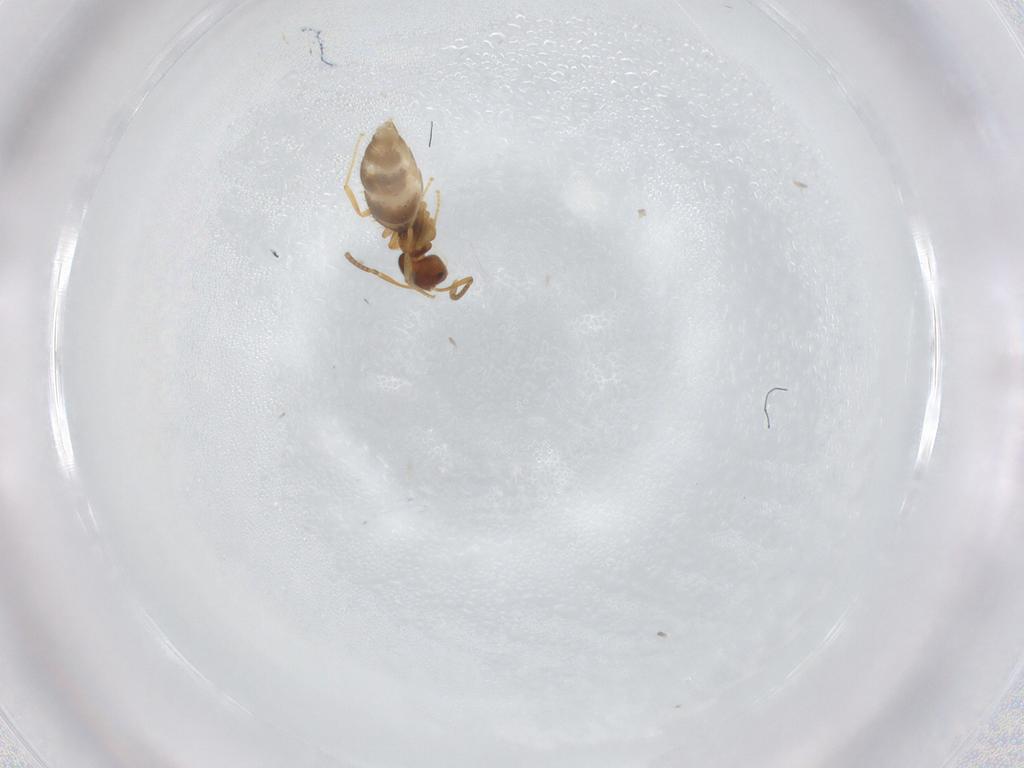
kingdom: Animalia
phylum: Arthropoda
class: Insecta
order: Hymenoptera
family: Formicidae
